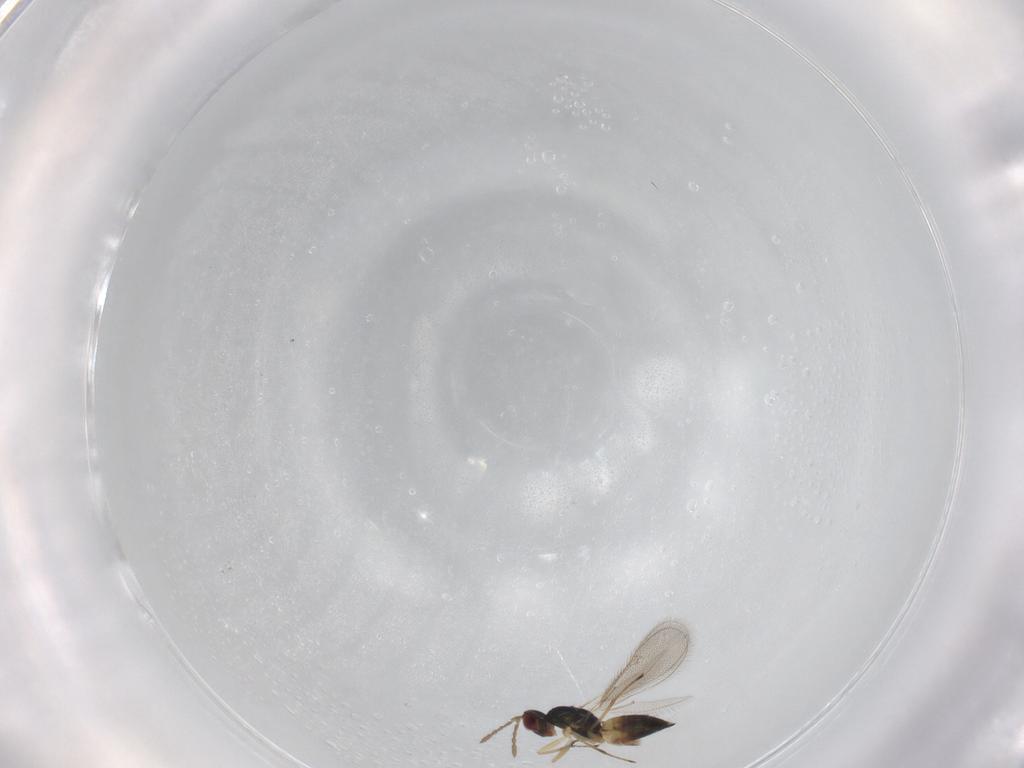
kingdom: Animalia
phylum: Arthropoda
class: Insecta
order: Hymenoptera
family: Eulophidae
